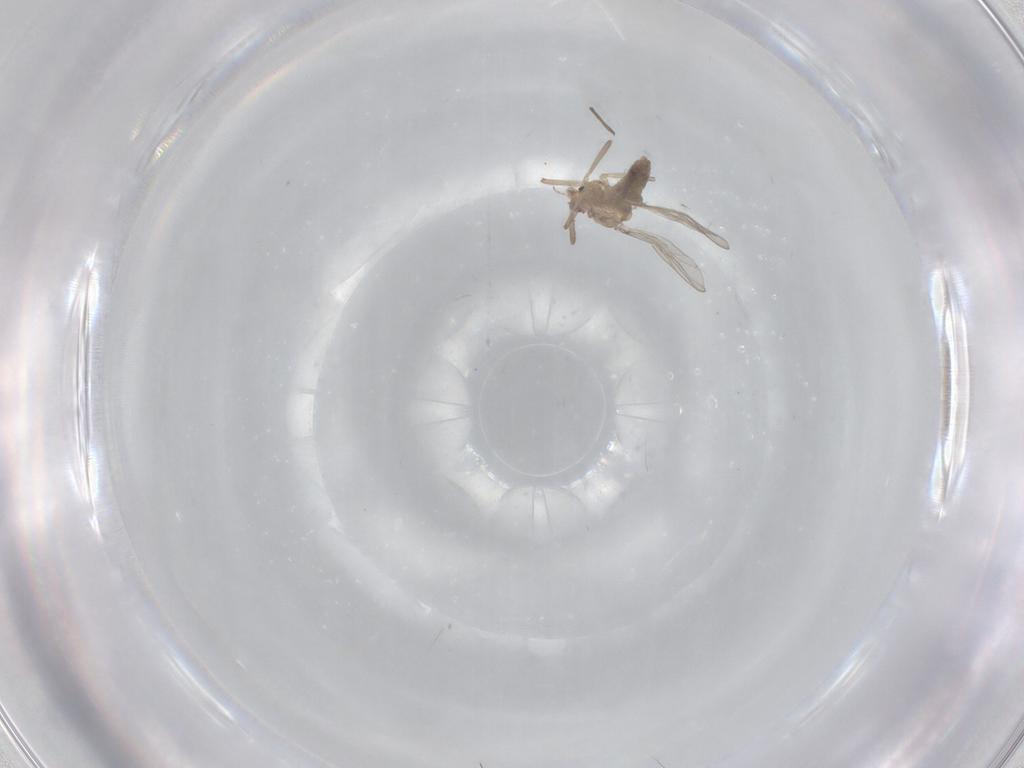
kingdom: Animalia
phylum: Arthropoda
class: Insecta
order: Diptera
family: Chironomidae
